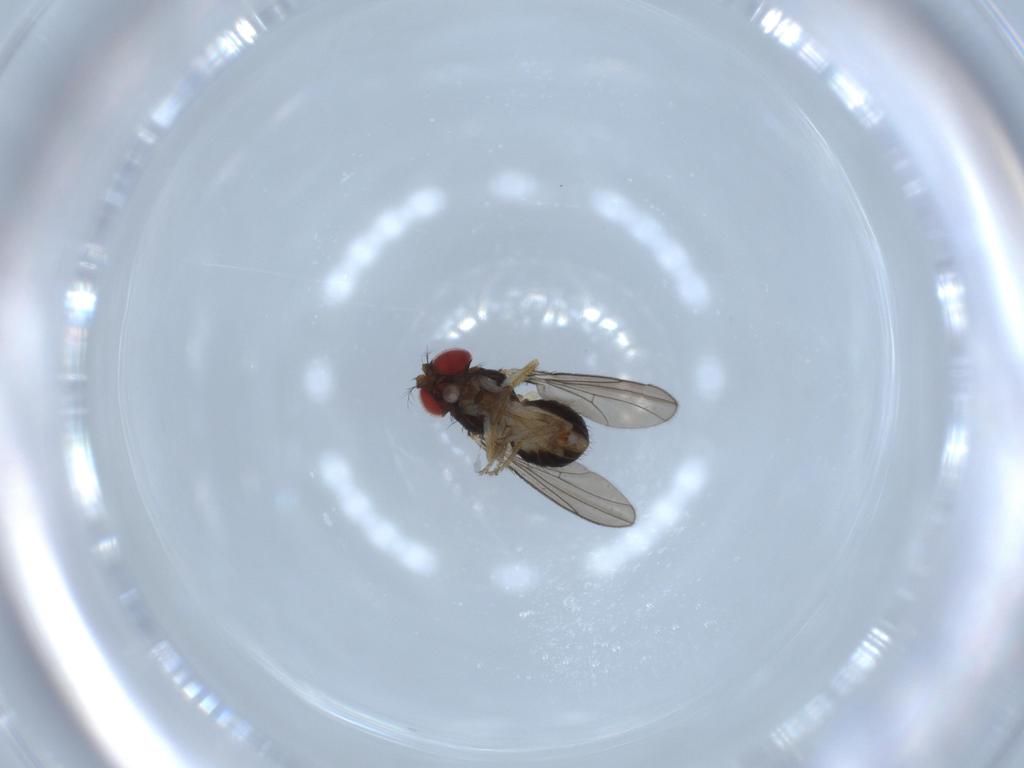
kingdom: Animalia
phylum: Arthropoda
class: Insecta
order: Diptera
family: Drosophilidae
